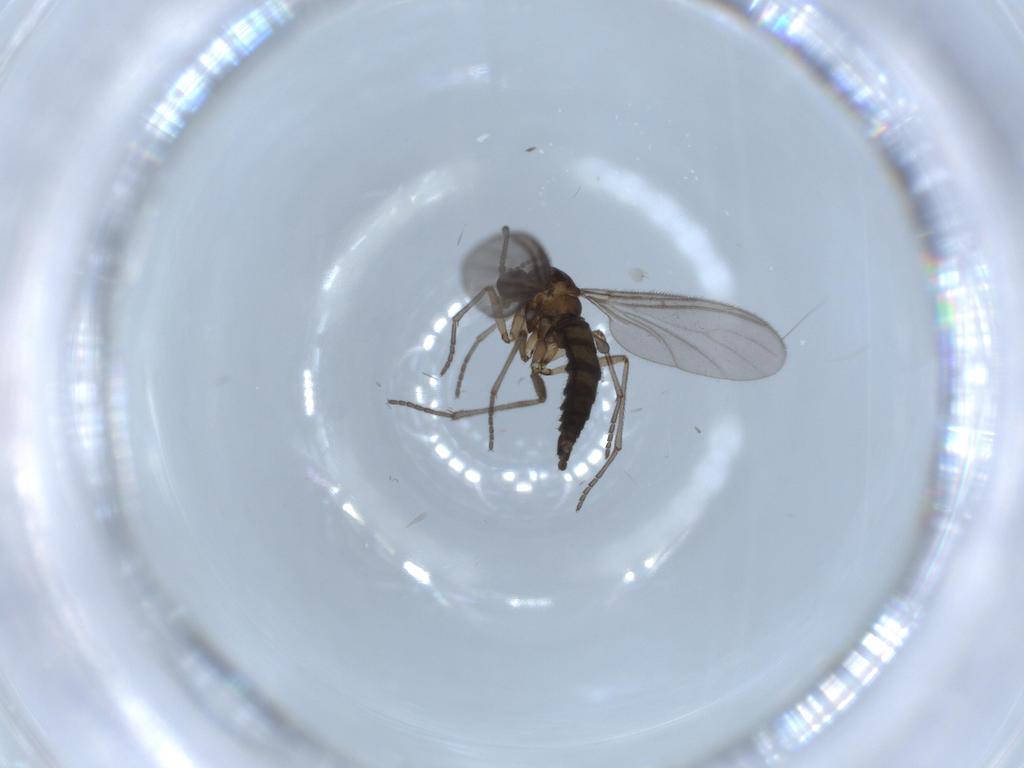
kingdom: Animalia
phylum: Arthropoda
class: Insecta
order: Diptera
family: Sciaridae
